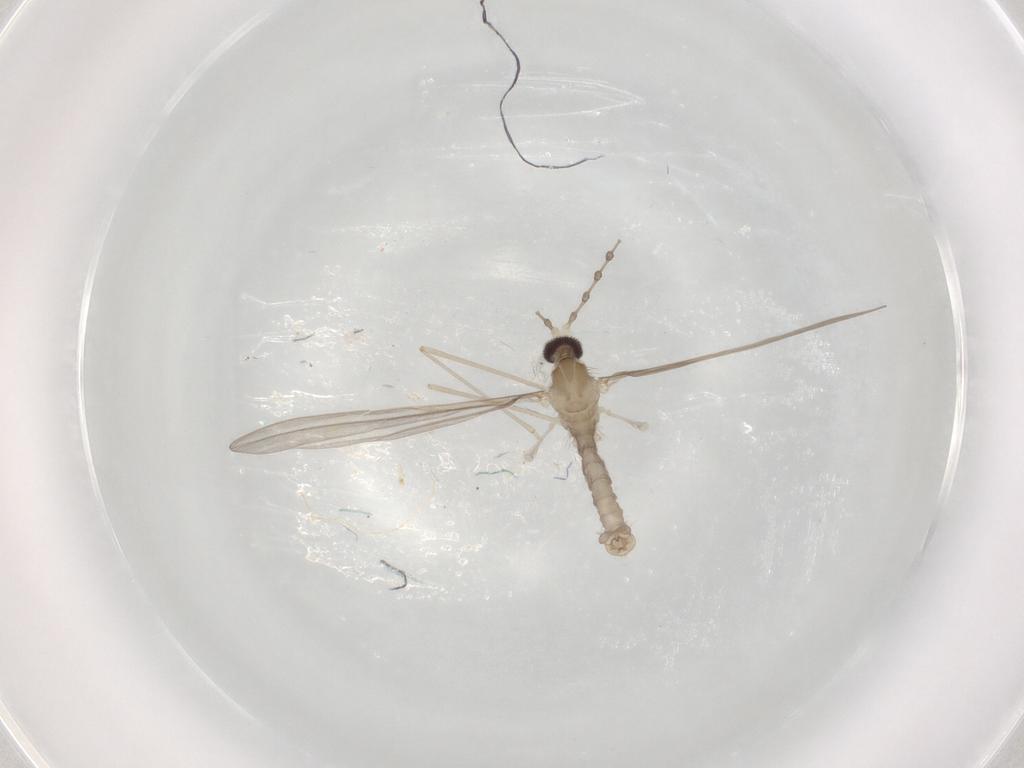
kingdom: Animalia
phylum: Arthropoda
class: Insecta
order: Diptera
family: Cecidomyiidae
